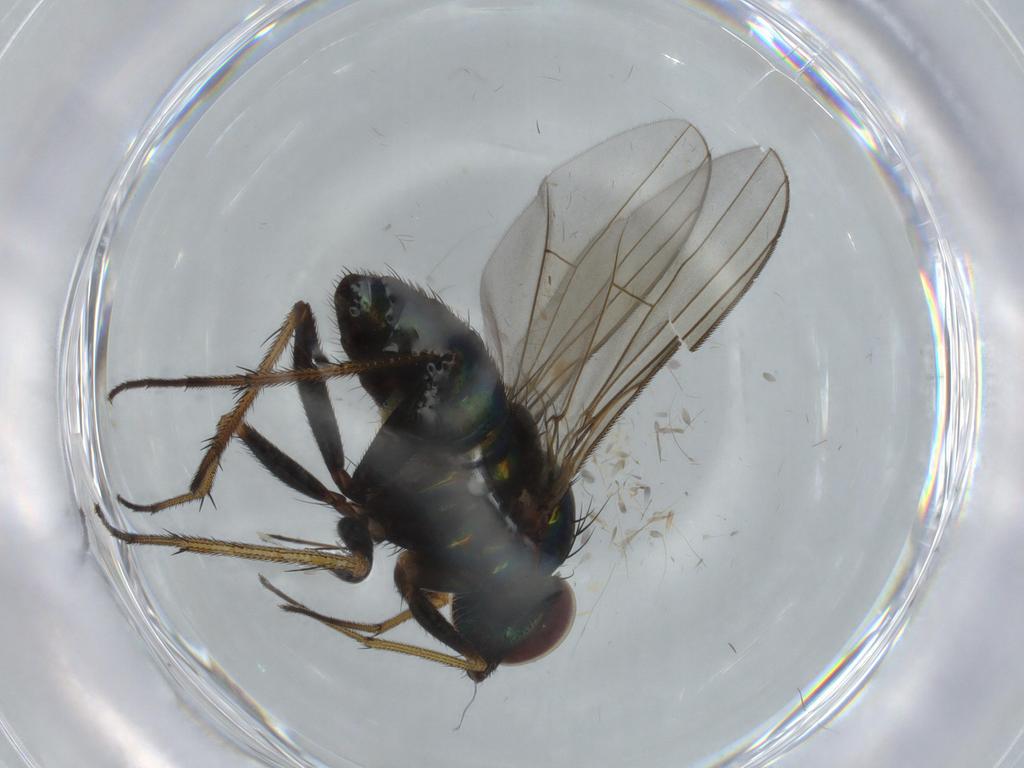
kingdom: Animalia
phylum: Arthropoda
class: Insecta
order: Diptera
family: Dolichopodidae
